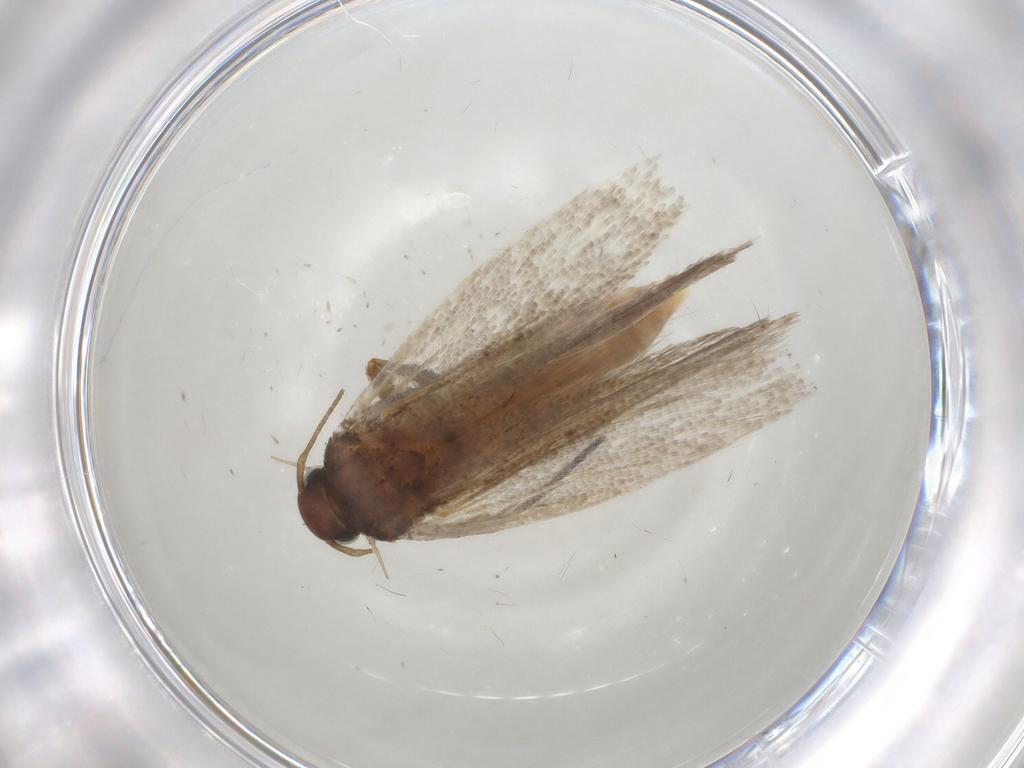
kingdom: Animalia
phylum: Arthropoda
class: Insecta
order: Lepidoptera
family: Gelechiidae
